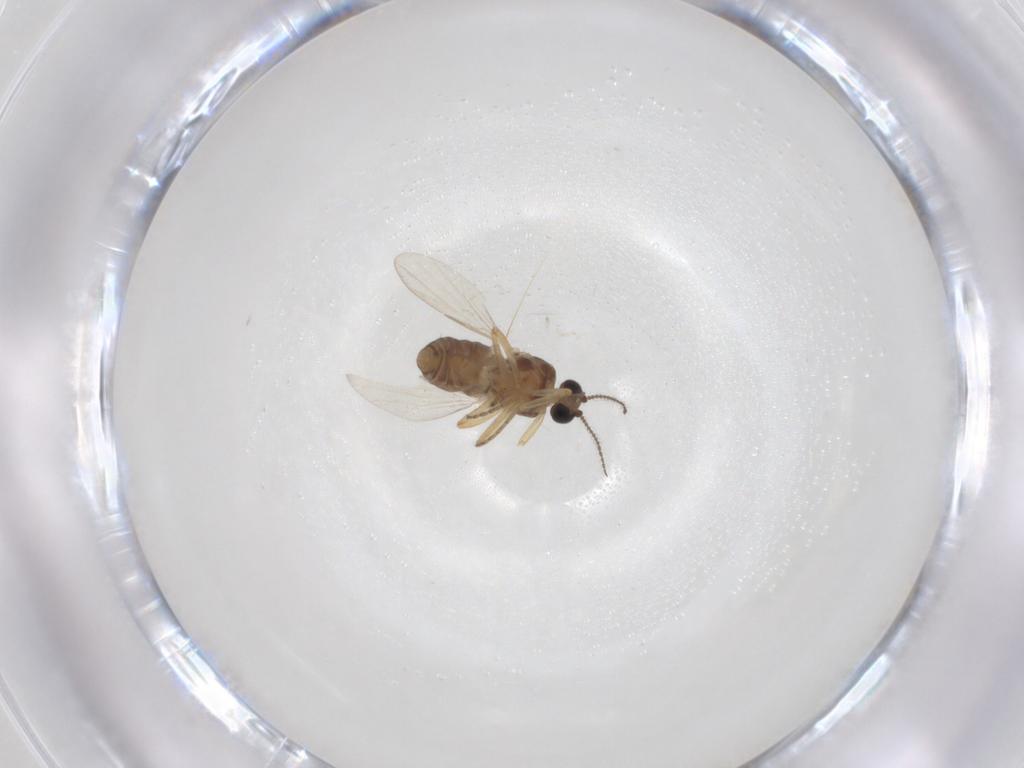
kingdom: Animalia
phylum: Arthropoda
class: Insecta
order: Diptera
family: Ceratopogonidae
